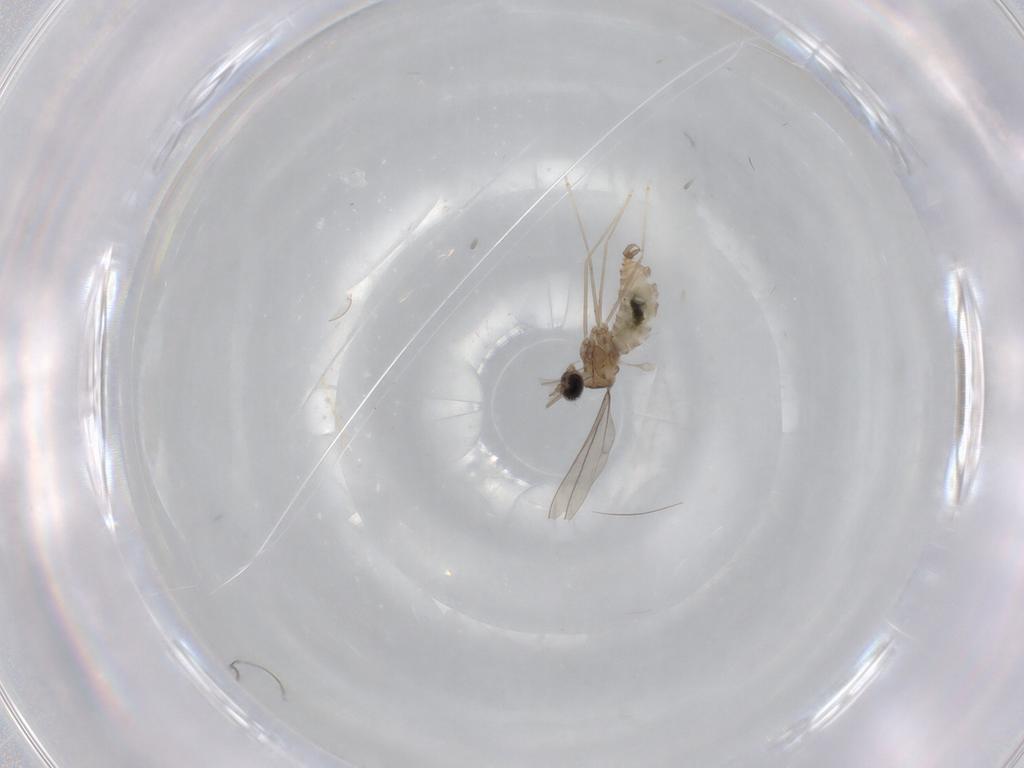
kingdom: Animalia
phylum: Arthropoda
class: Insecta
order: Diptera
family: Cecidomyiidae
